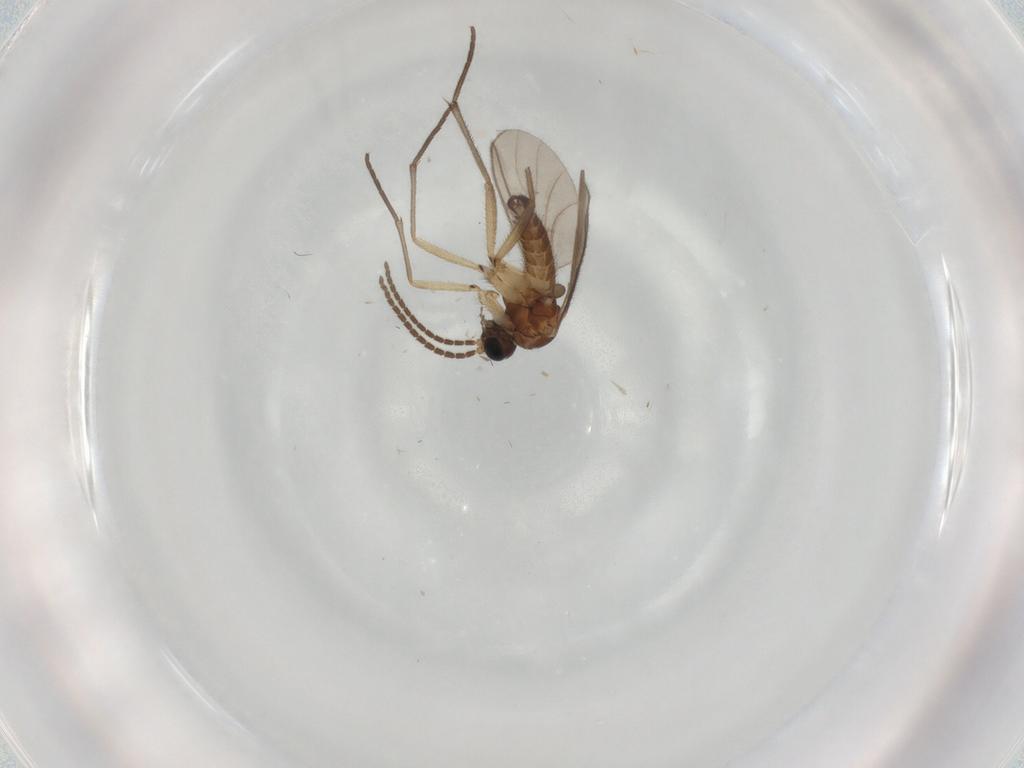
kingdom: Animalia
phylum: Arthropoda
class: Insecta
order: Diptera
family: Sciaridae
